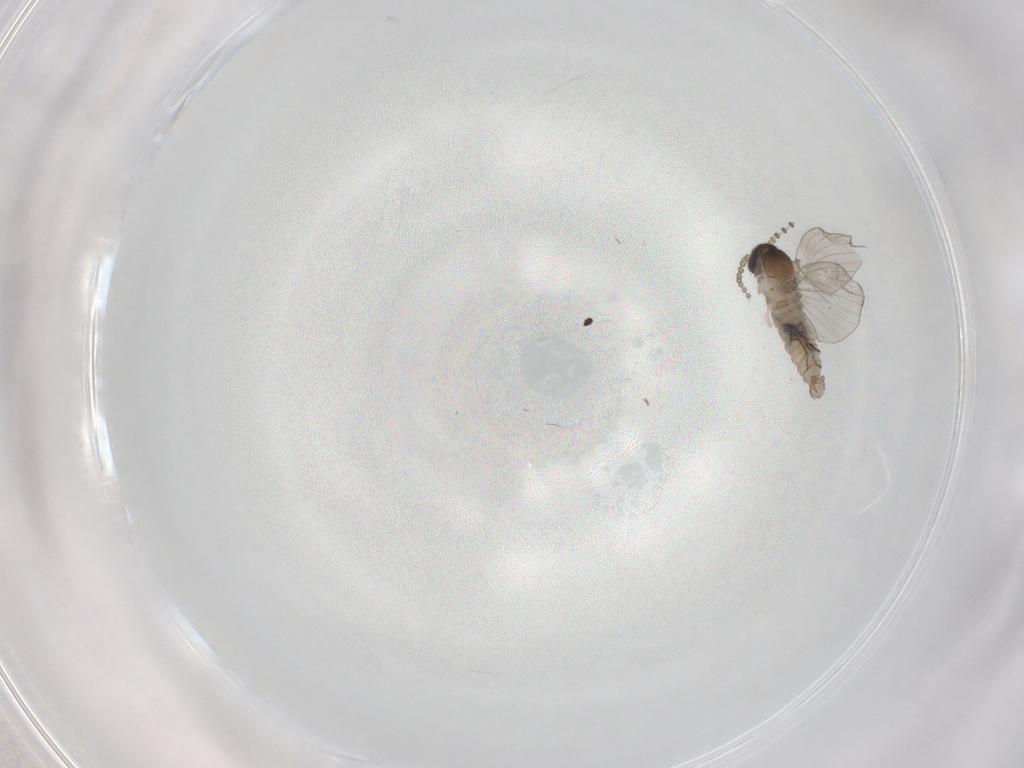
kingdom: Animalia
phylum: Arthropoda
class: Insecta
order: Diptera
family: Psychodidae
